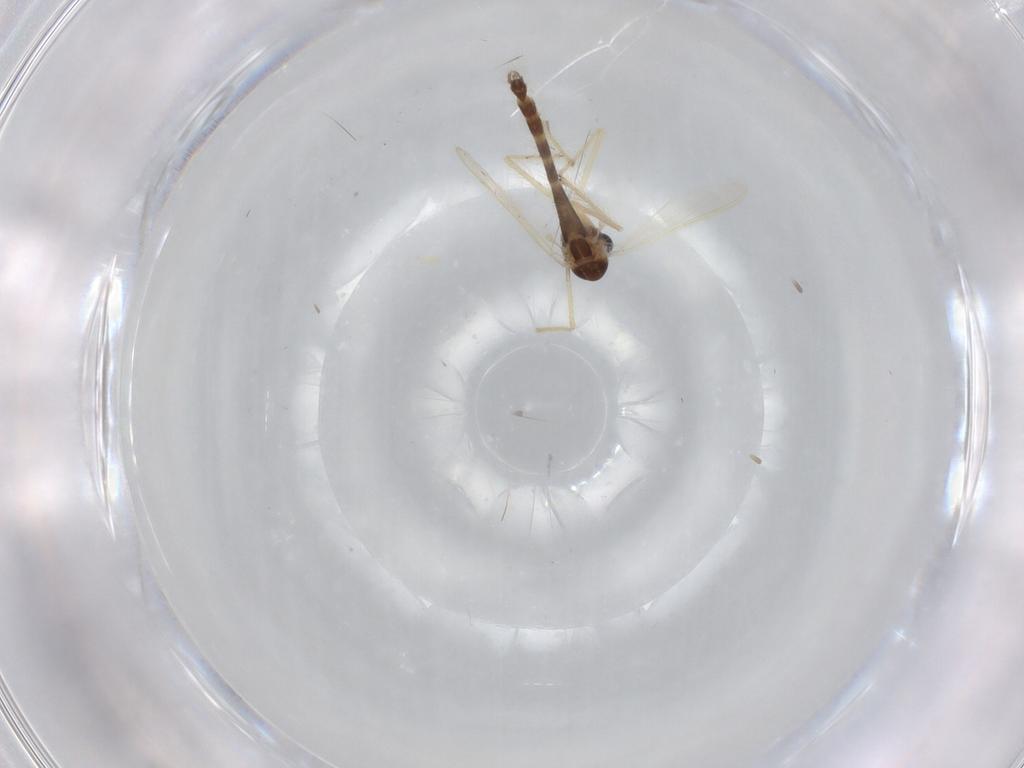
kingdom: Animalia
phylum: Arthropoda
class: Insecta
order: Diptera
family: Chironomidae
